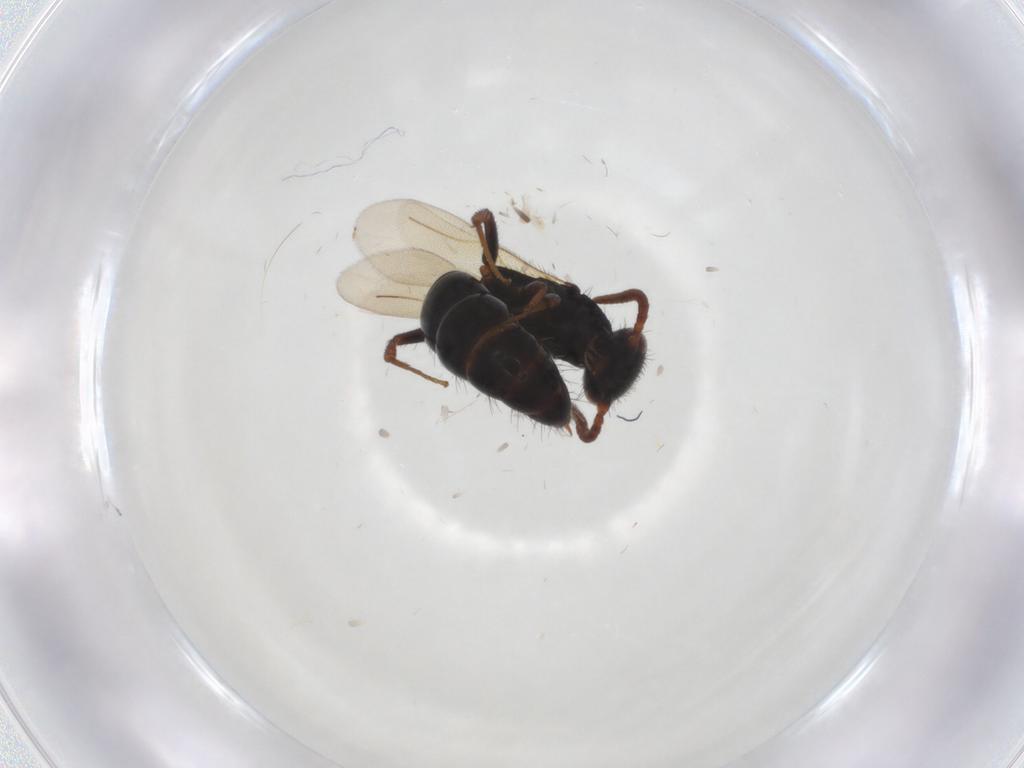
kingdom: Animalia
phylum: Arthropoda
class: Insecta
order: Hymenoptera
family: Bethylidae
